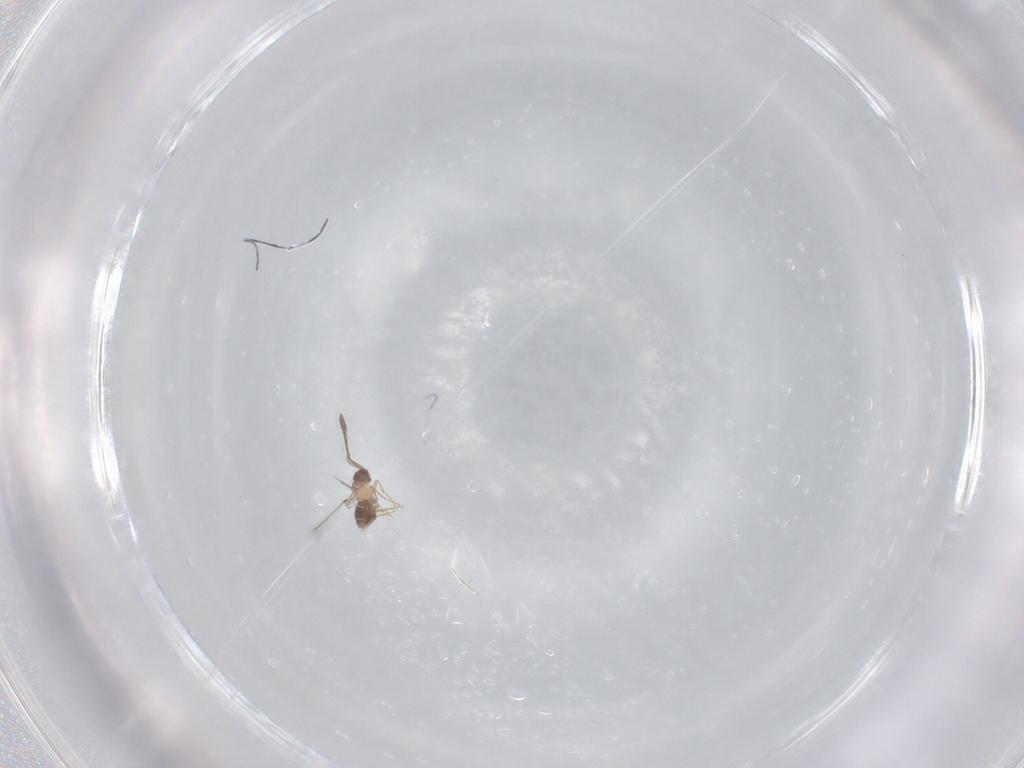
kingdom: Animalia
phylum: Arthropoda
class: Insecta
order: Hymenoptera
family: Mymaridae
